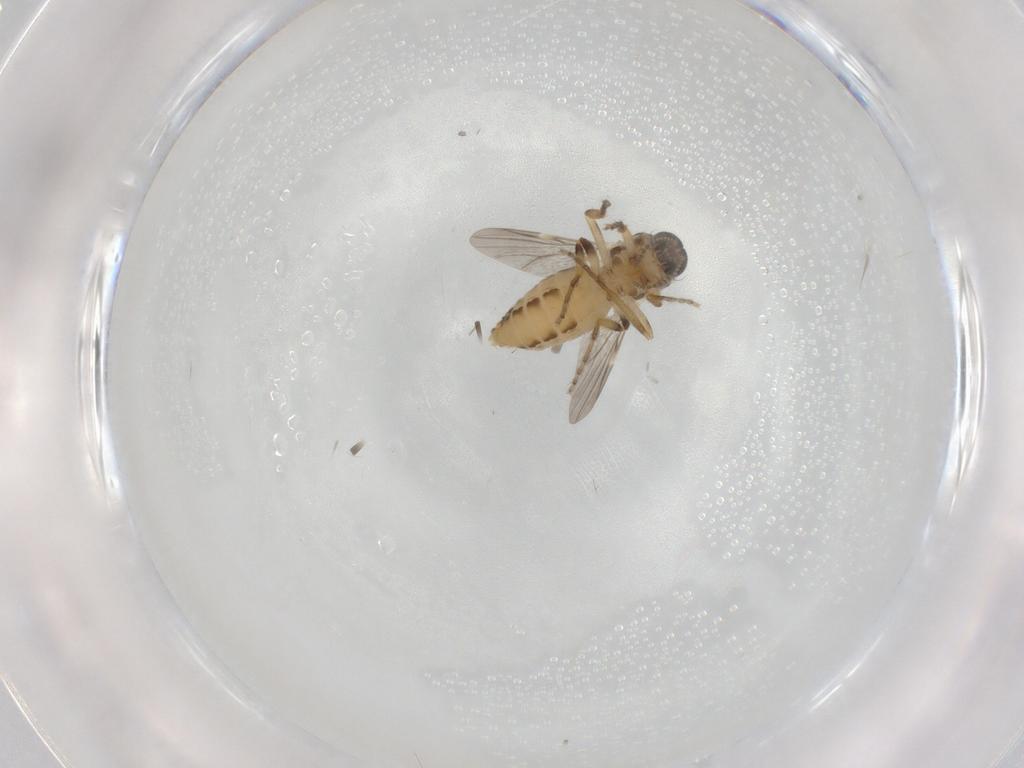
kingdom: Animalia
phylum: Arthropoda
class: Insecta
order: Diptera
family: Ceratopogonidae
